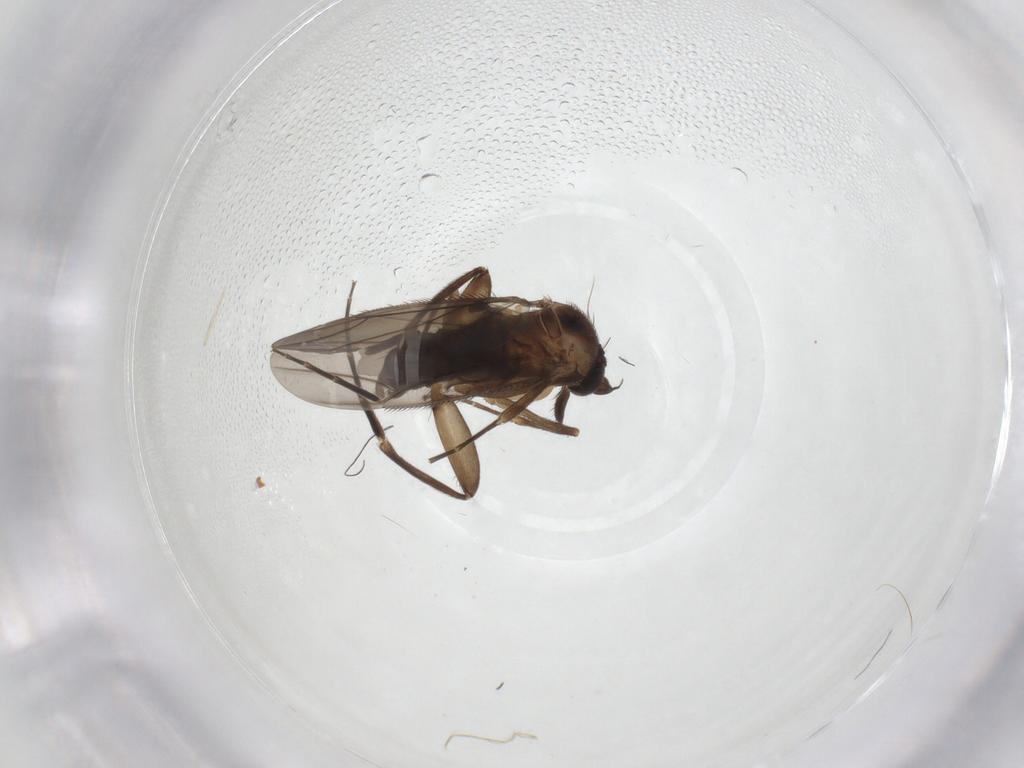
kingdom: Animalia
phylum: Arthropoda
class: Insecta
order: Diptera
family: Phoridae
